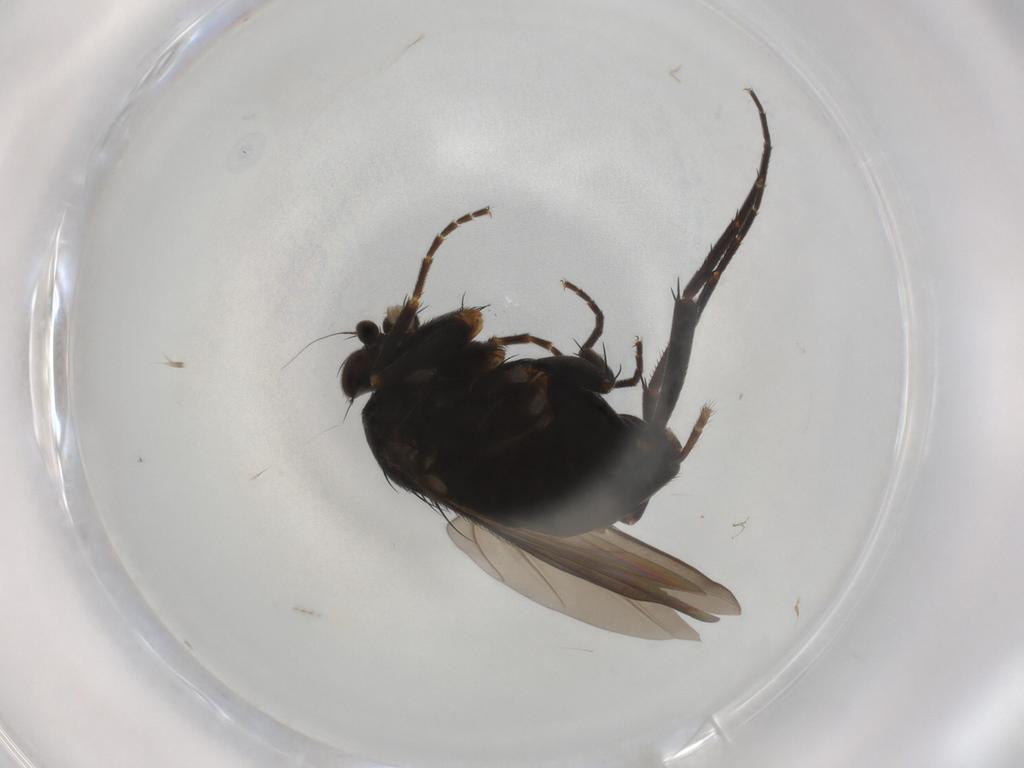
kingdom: Animalia
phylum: Arthropoda
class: Insecta
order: Diptera
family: Phoridae
